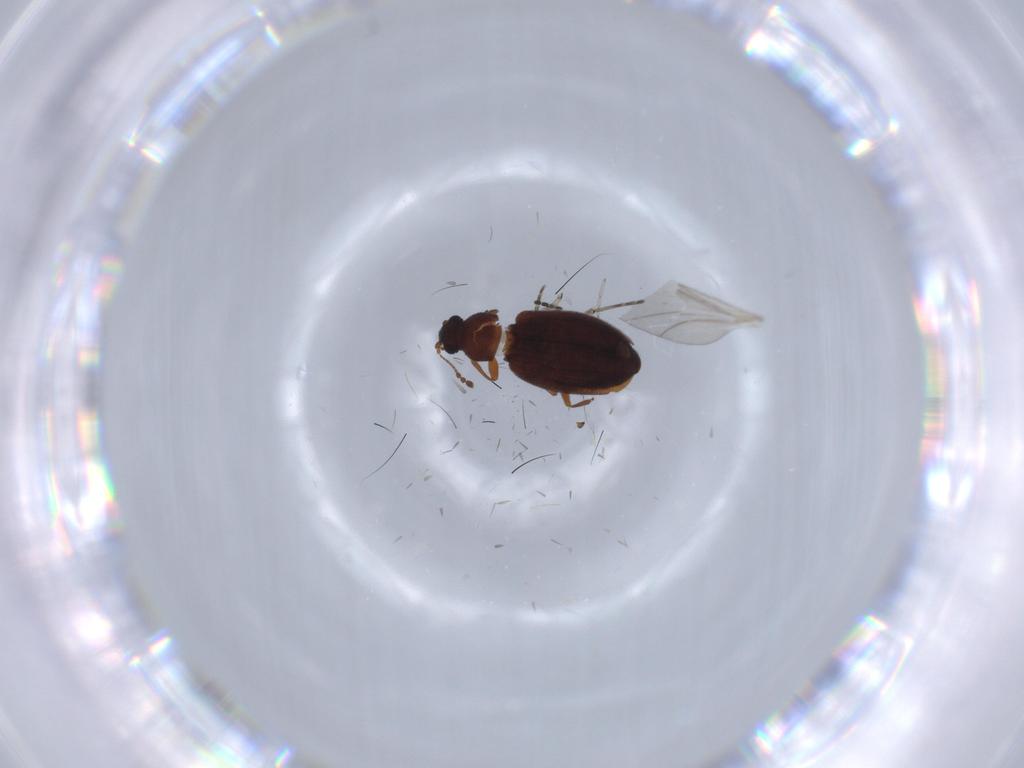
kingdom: Animalia
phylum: Arthropoda
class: Insecta
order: Coleoptera
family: Latridiidae
